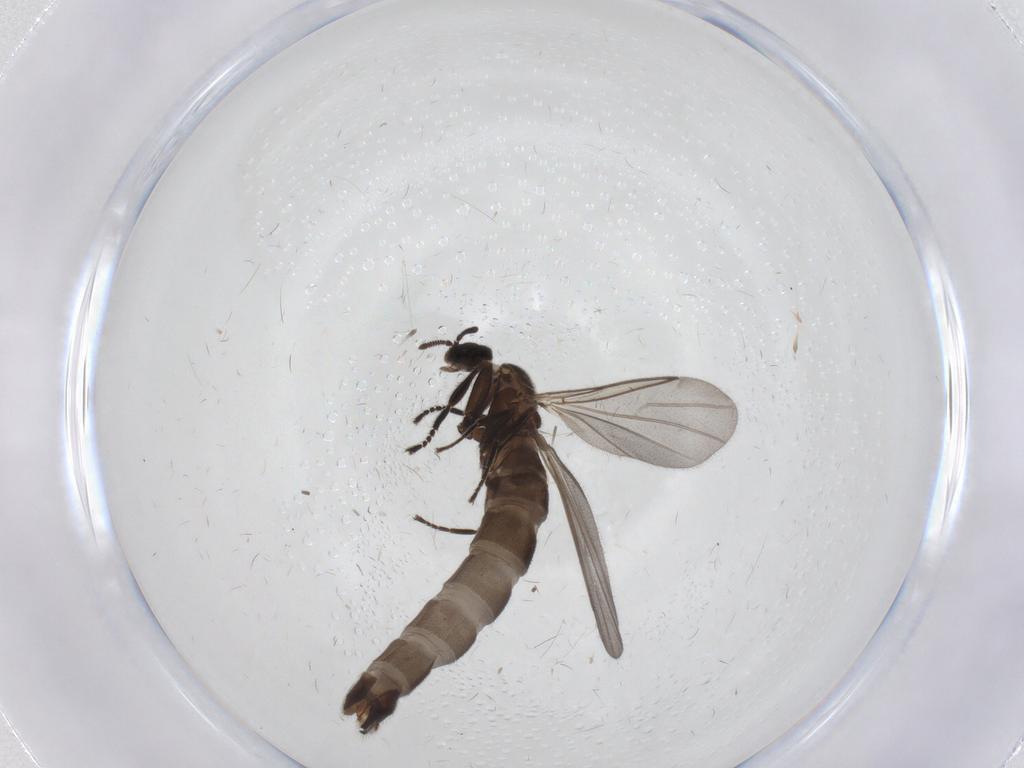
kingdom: Animalia
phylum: Arthropoda
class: Insecta
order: Diptera
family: Scatopsidae
